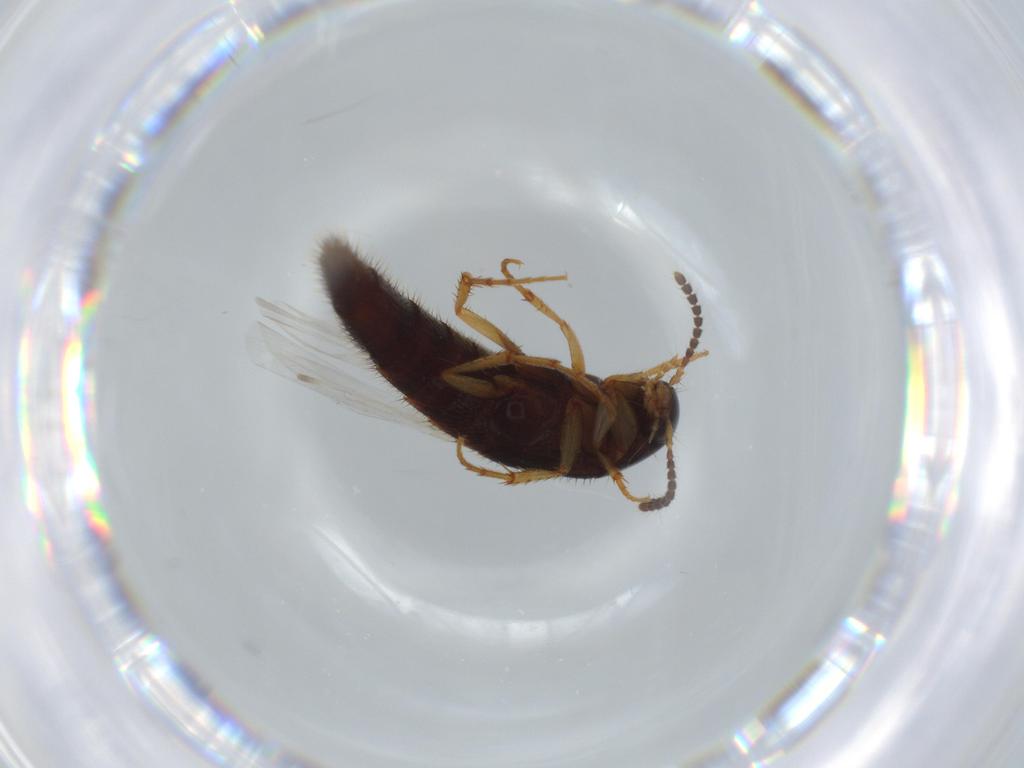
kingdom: Animalia
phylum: Arthropoda
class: Insecta
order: Coleoptera
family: Staphylinidae
